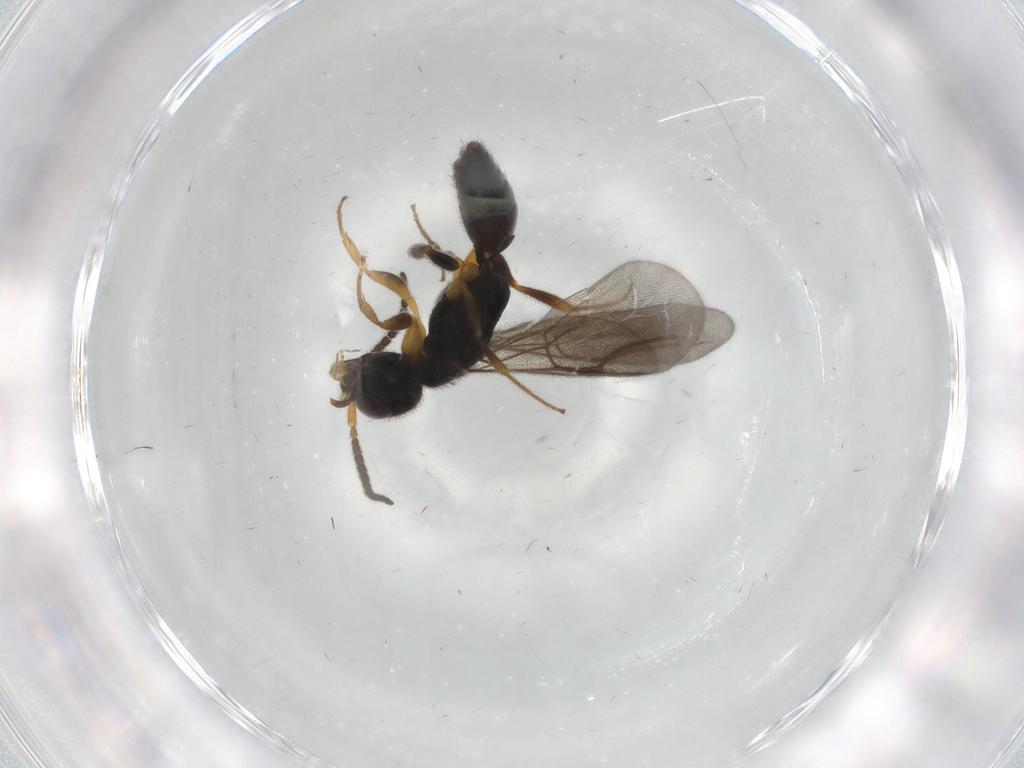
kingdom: Animalia
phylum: Arthropoda
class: Insecta
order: Hymenoptera
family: Bethylidae
